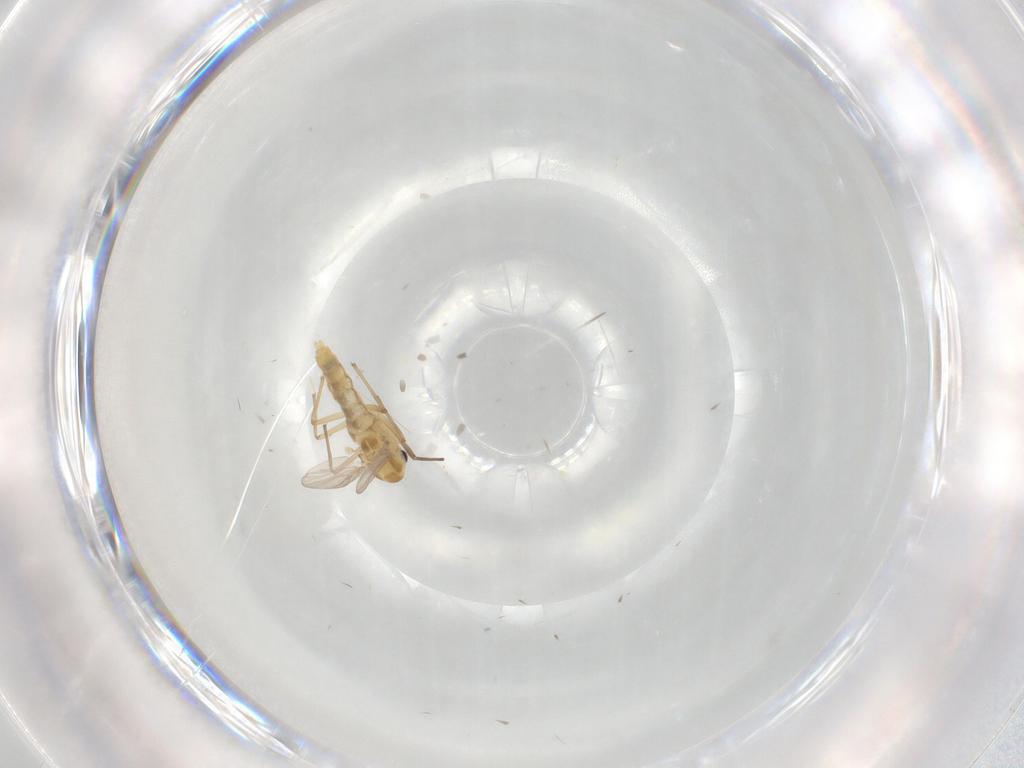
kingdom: Animalia
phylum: Arthropoda
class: Insecta
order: Diptera
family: Chironomidae
